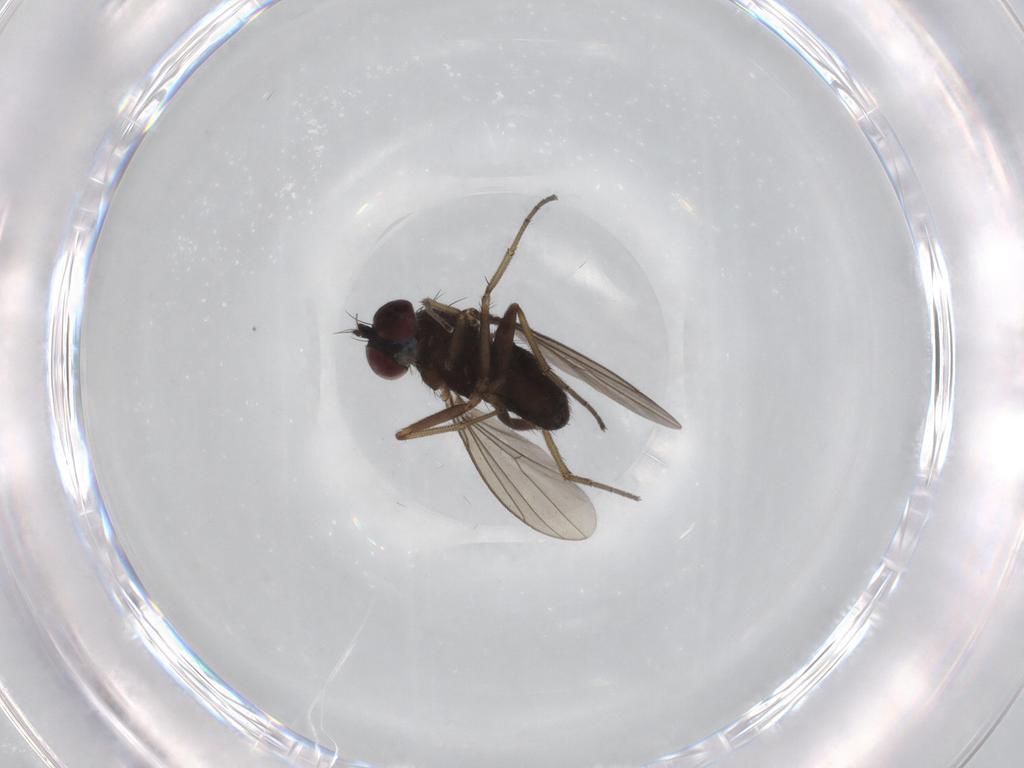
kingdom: Animalia
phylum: Arthropoda
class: Insecta
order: Diptera
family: Dolichopodidae
